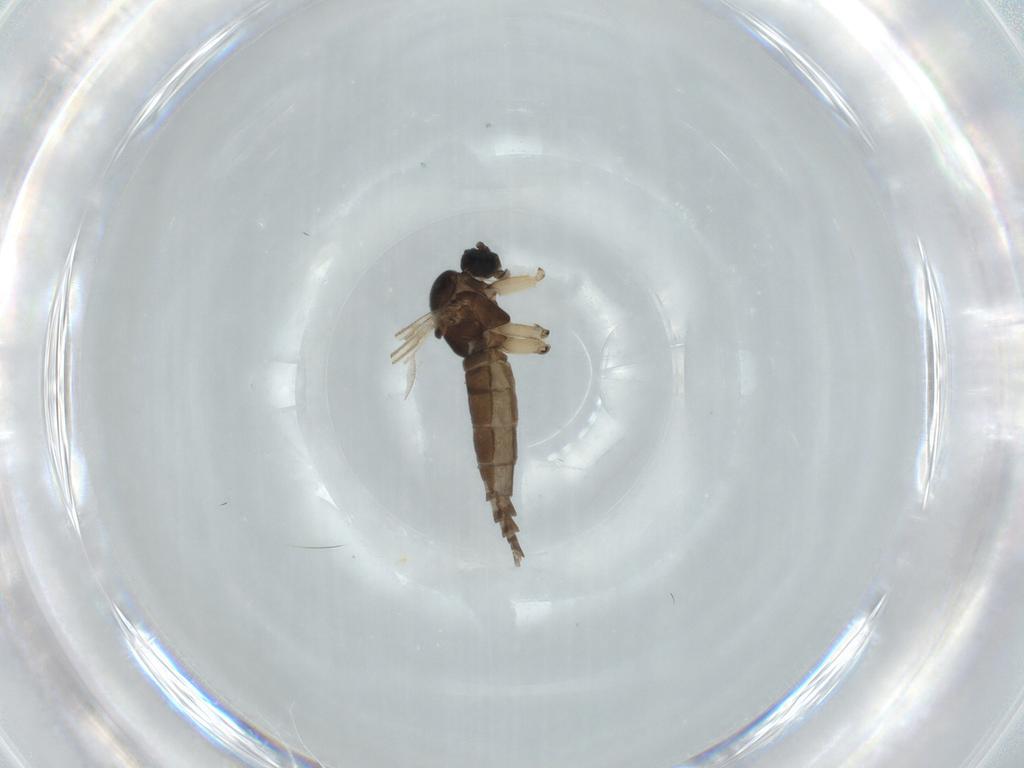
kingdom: Animalia
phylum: Arthropoda
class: Insecta
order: Diptera
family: Sciaridae
